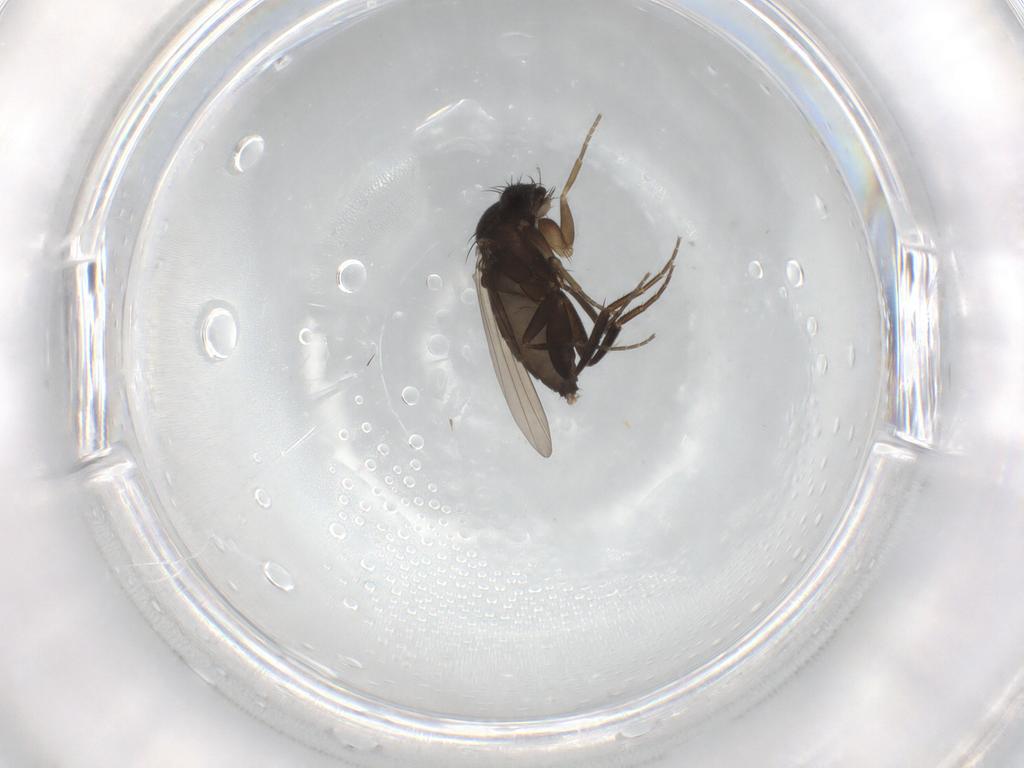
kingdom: Animalia
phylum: Arthropoda
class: Insecta
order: Diptera
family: Phoridae
